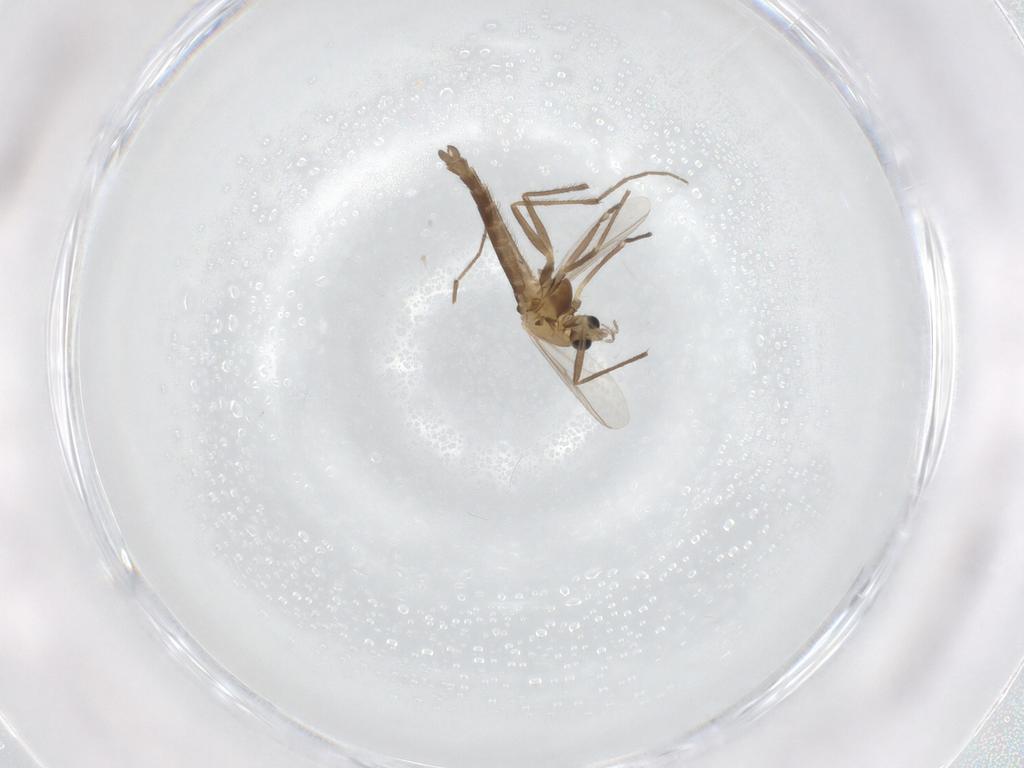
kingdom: Animalia
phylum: Arthropoda
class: Insecta
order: Diptera
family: Chironomidae
